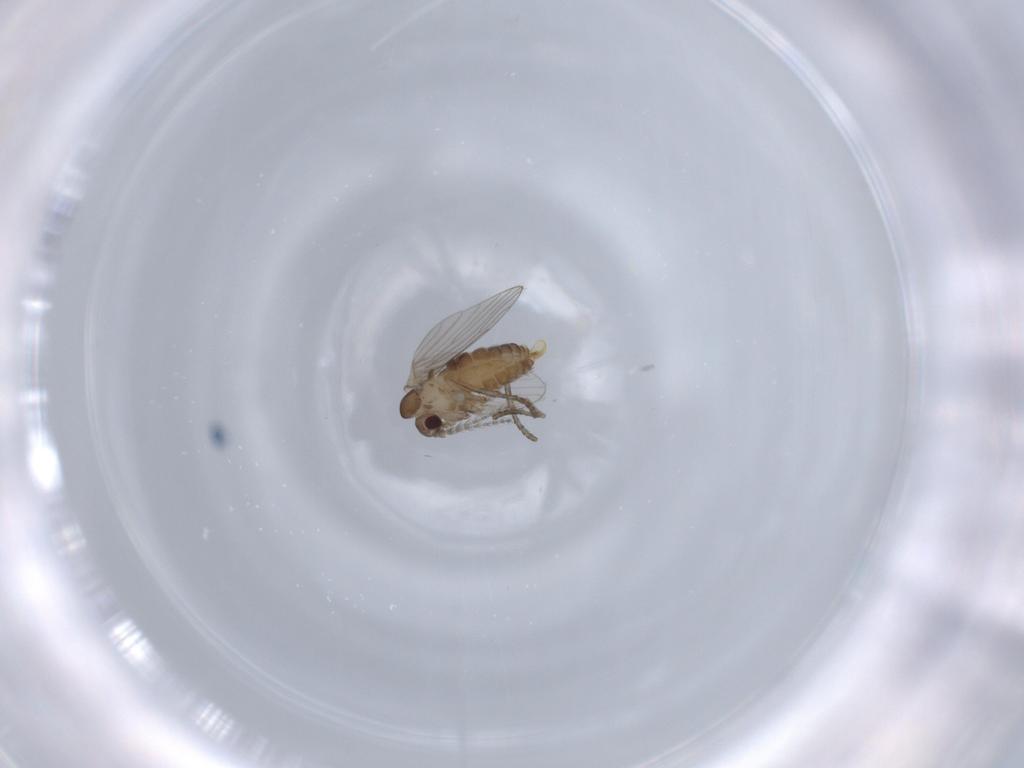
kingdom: Animalia
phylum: Arthropoda
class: Insecta
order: Diptera
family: Psychodidae
